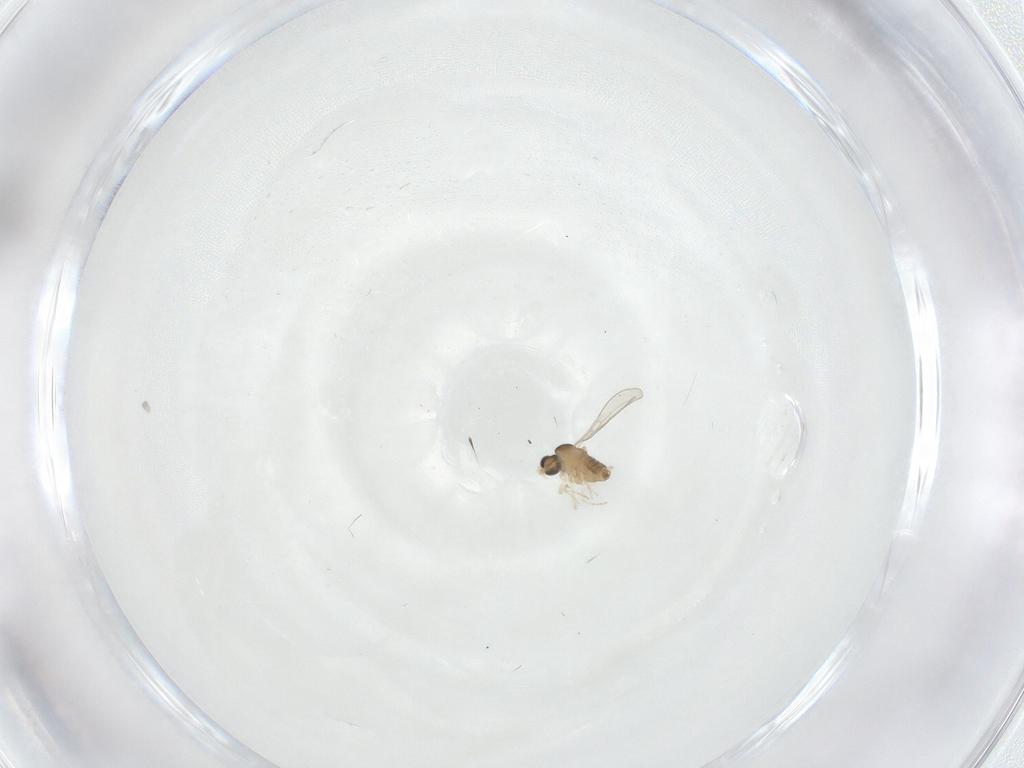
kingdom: Animalia
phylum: Arthropoda
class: Insecta
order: Diptera
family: Cecidomyiidae
